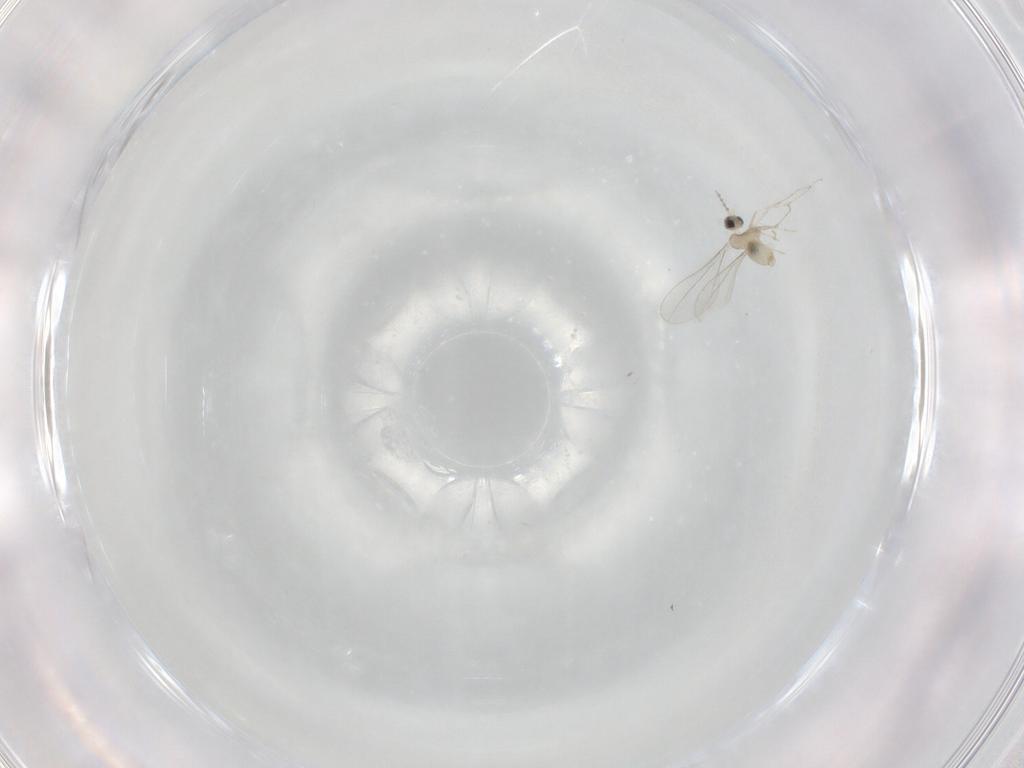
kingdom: Animalia
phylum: Arthropoda
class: Insecta
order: Diptera
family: Cecidomyiidae
